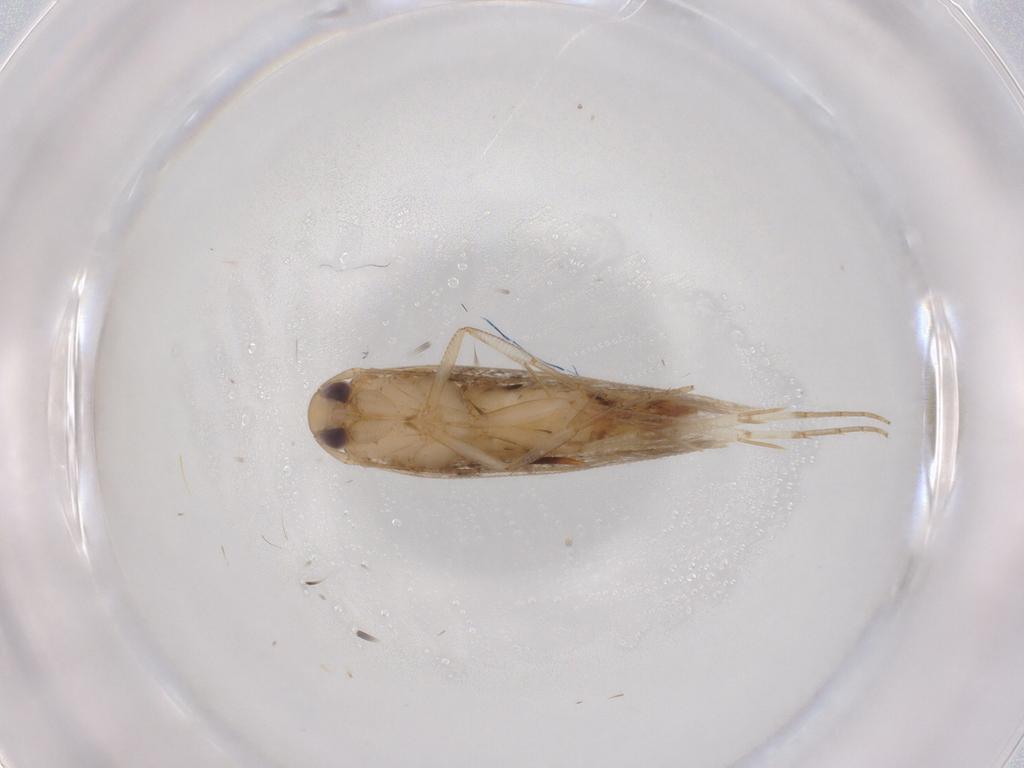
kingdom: Animalia
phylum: Arthropoda
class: Insecta
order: Lepidoptera
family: Cosmopterigidae
